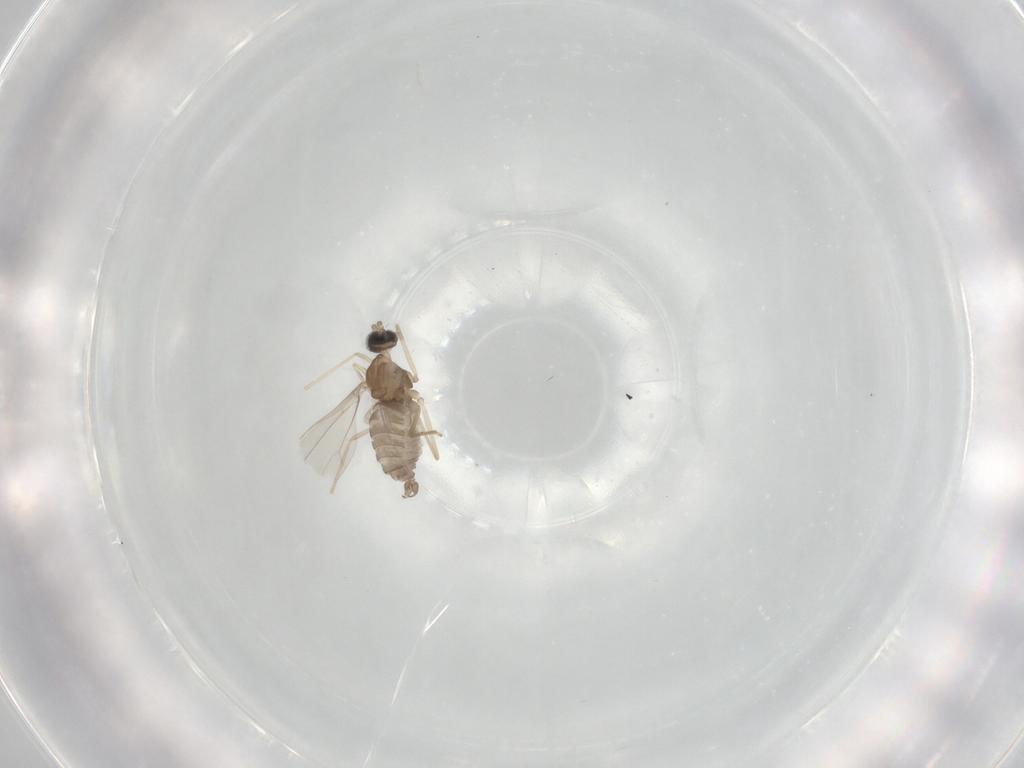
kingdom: Animalia
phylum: Arthropoda
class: Insecta
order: Diptera
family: Cecidomyiidae
